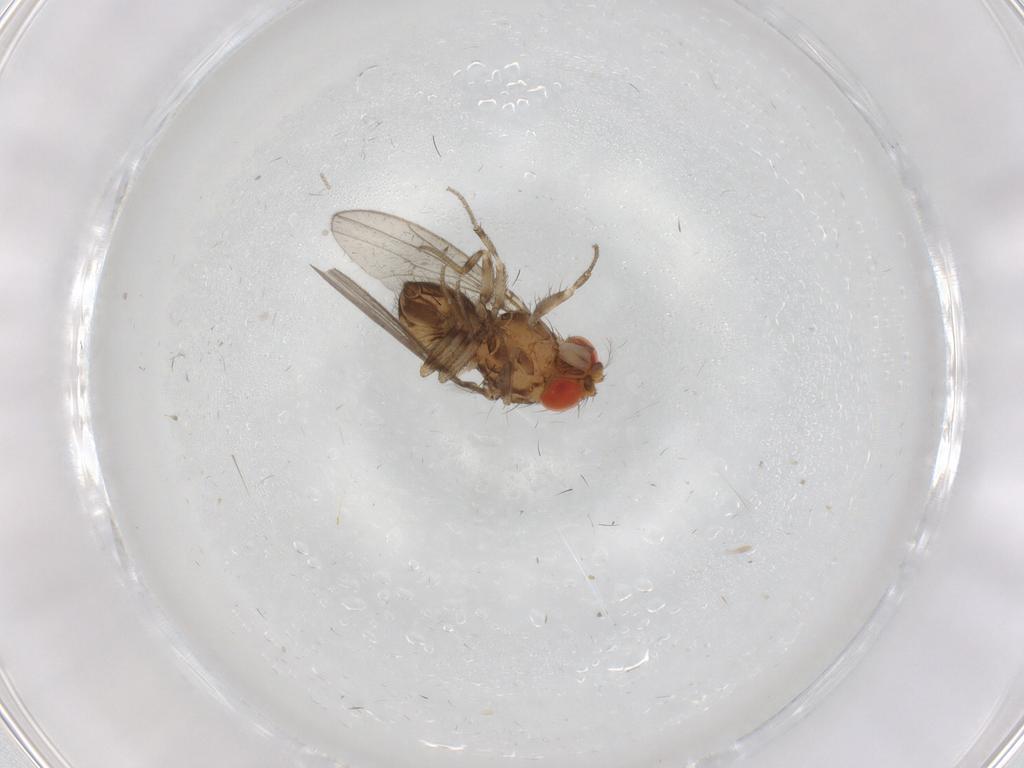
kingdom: Animalia
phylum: Arthropoda
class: Insecta
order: Diptera
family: Drosophilidae
